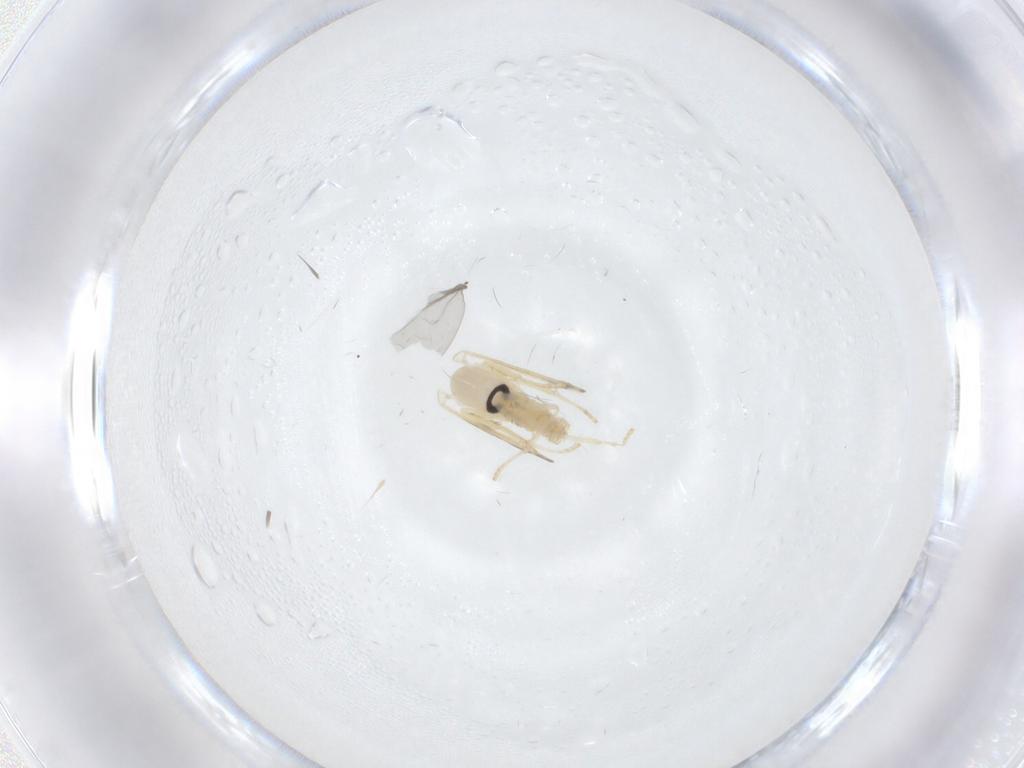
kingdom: Animalia
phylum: Arthropoda
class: Insecta
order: Diptera
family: Psychodidae
